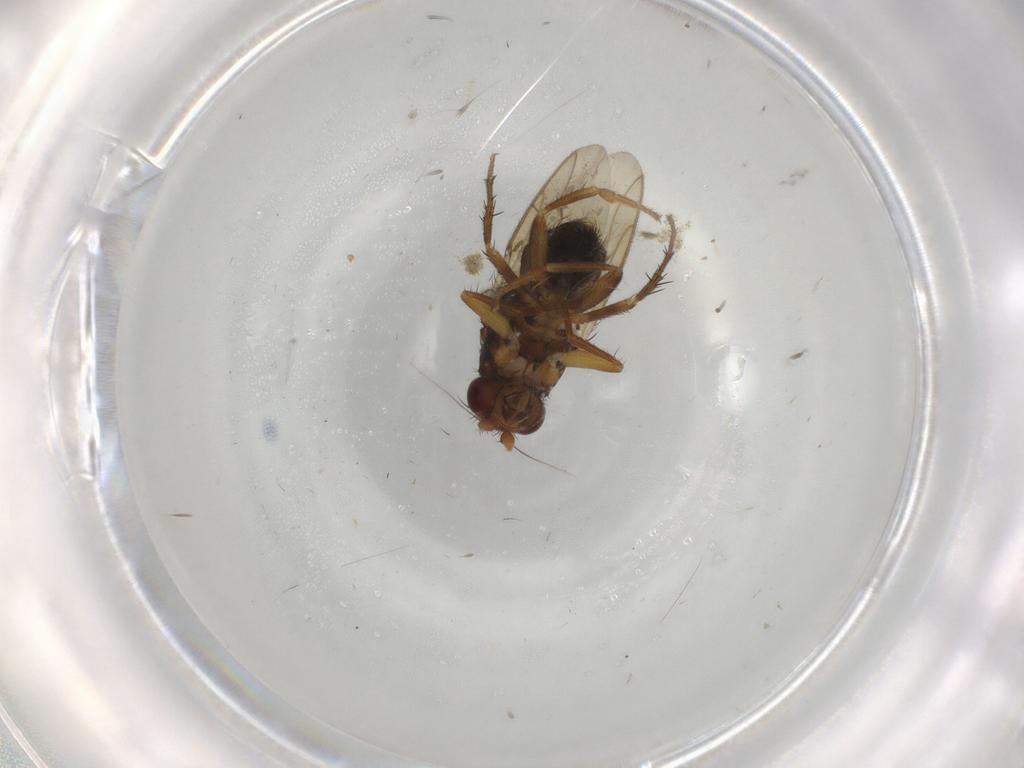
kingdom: Animalia
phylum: Arthropoda
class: Insecta
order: Diptera
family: Sphaeroceridae
